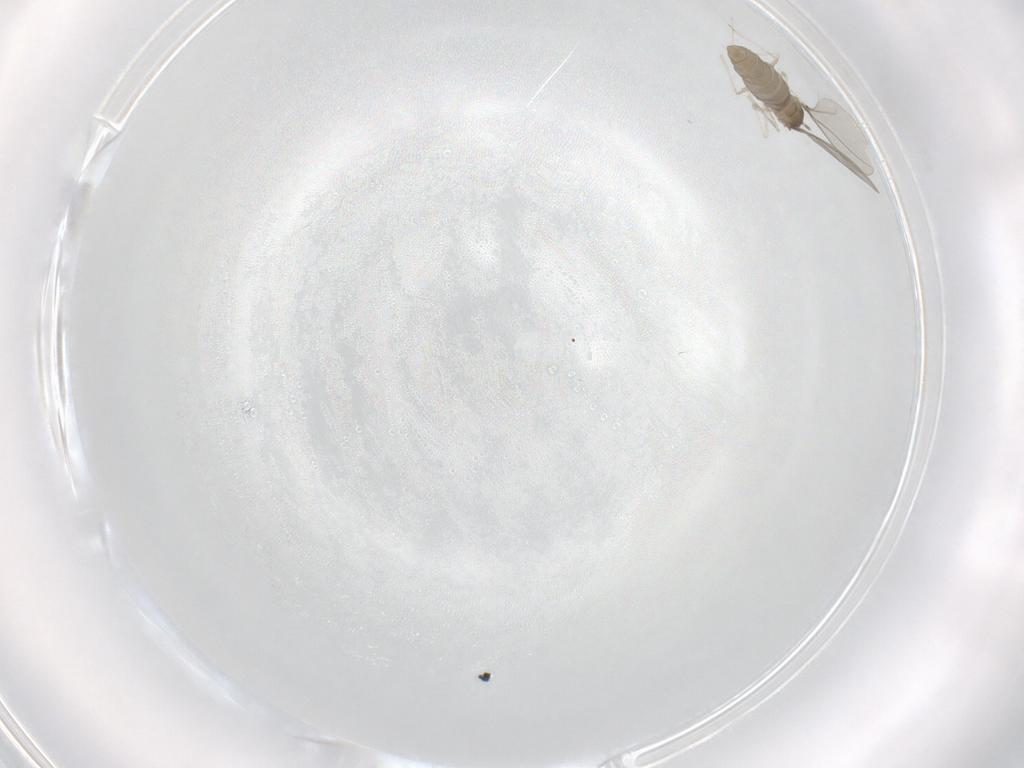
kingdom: Animalia
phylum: Arthropoda
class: Insecta
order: Diptera
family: Cecidomyiidae
